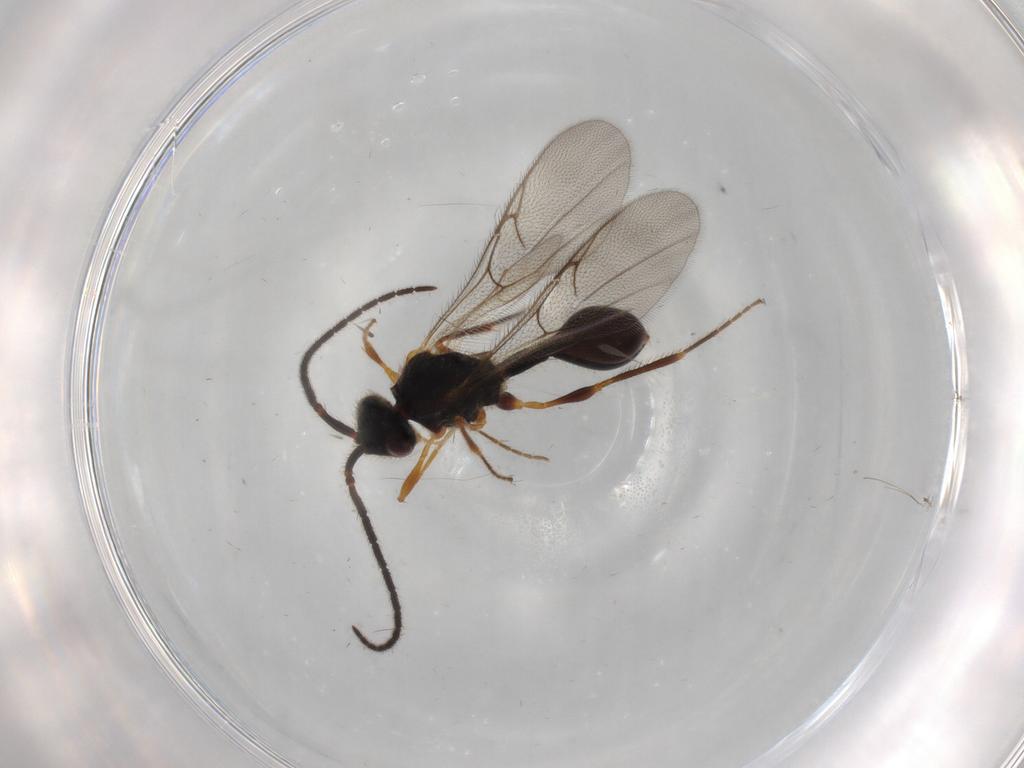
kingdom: Animalia
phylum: Arthropoda
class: Insecta
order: Hymenoptera
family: Diapriidae
